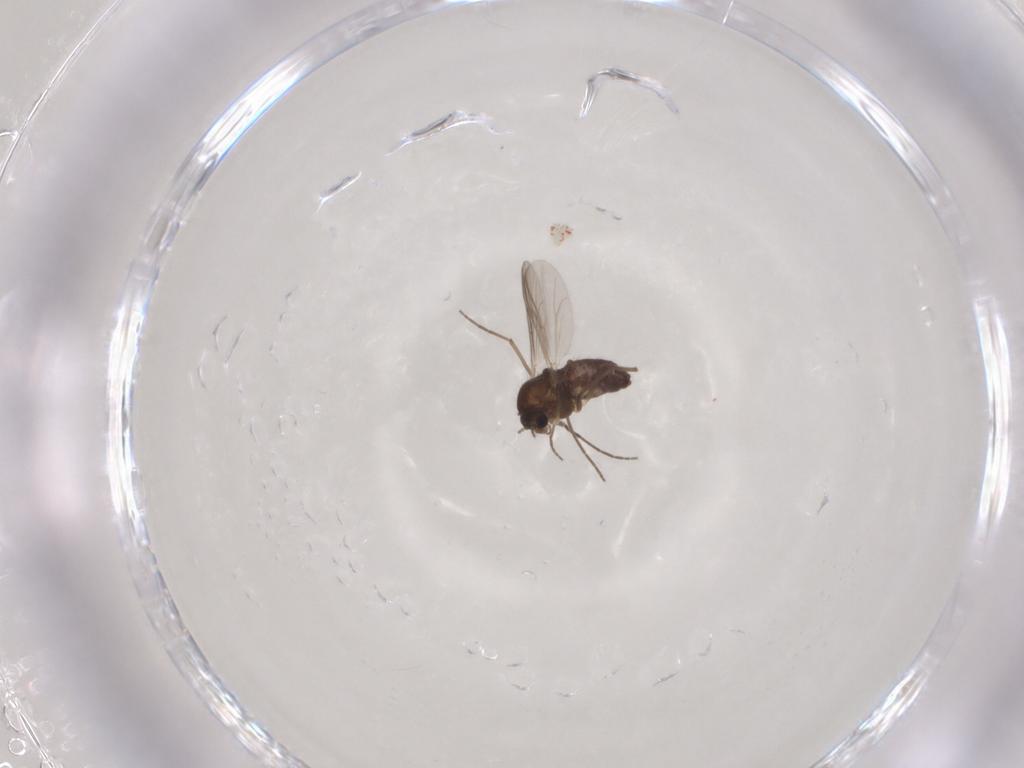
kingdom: Animalia
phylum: Arthropoda
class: Insecta
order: Diptera
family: Chironomidae
